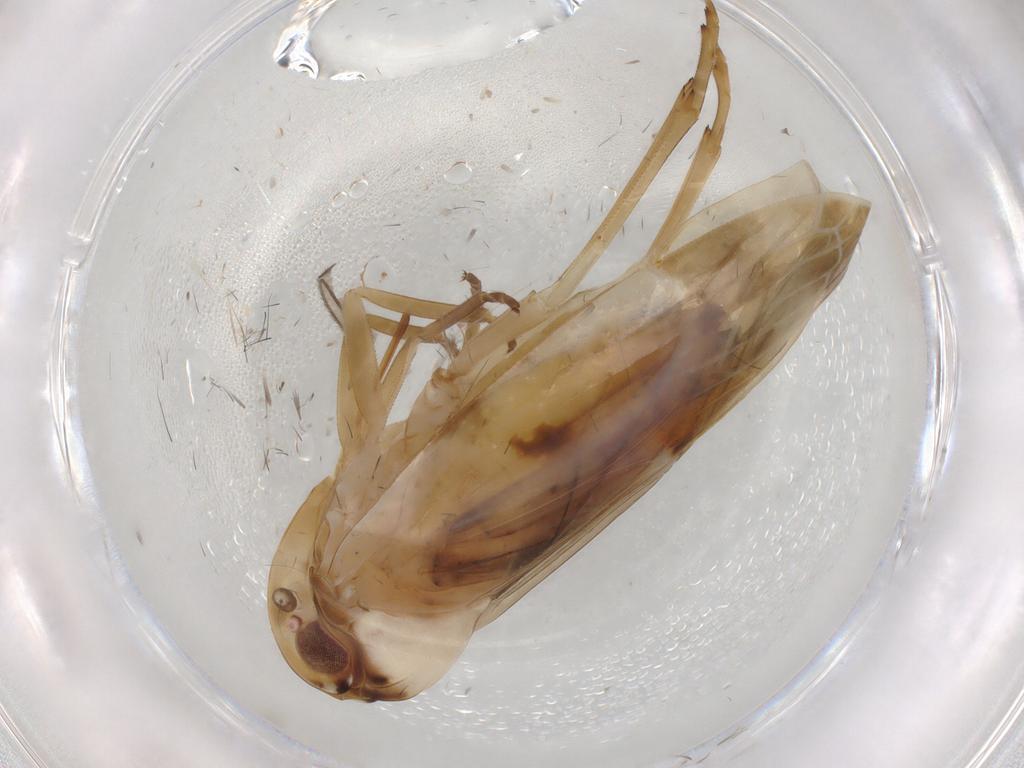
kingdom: Animalia
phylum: Arthropoda
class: Insecta
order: Hemiptera
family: Achilidae
